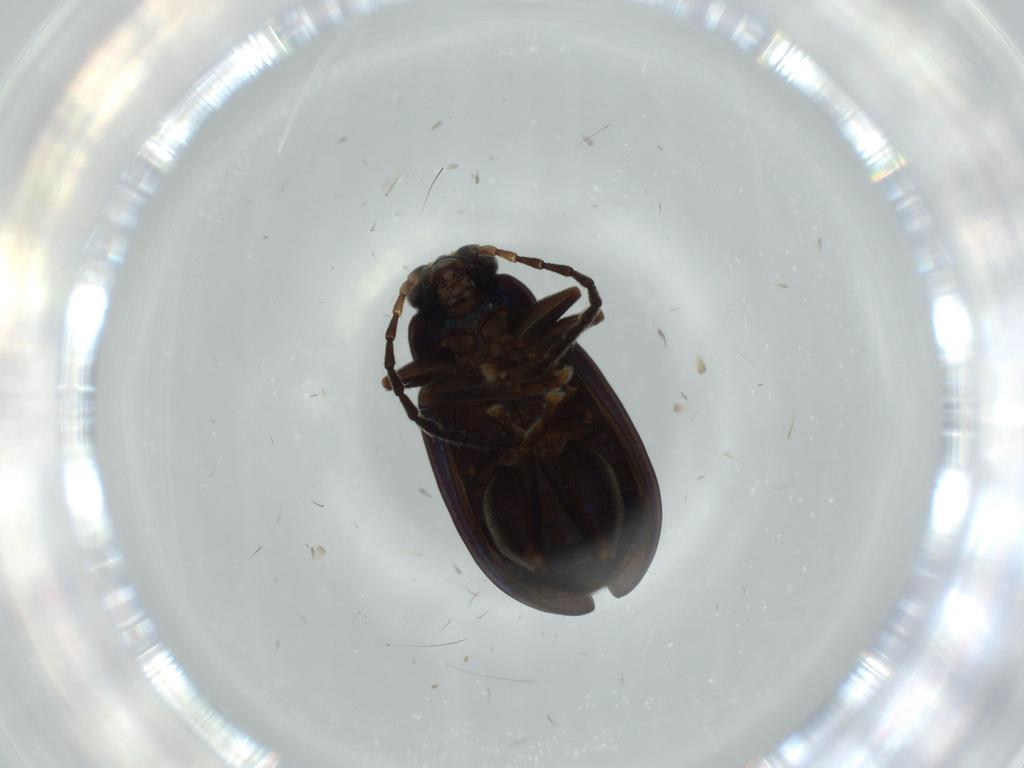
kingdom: Animalia
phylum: Arthropoda
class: Insecta
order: Coleoptera
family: Chrysomelidae
